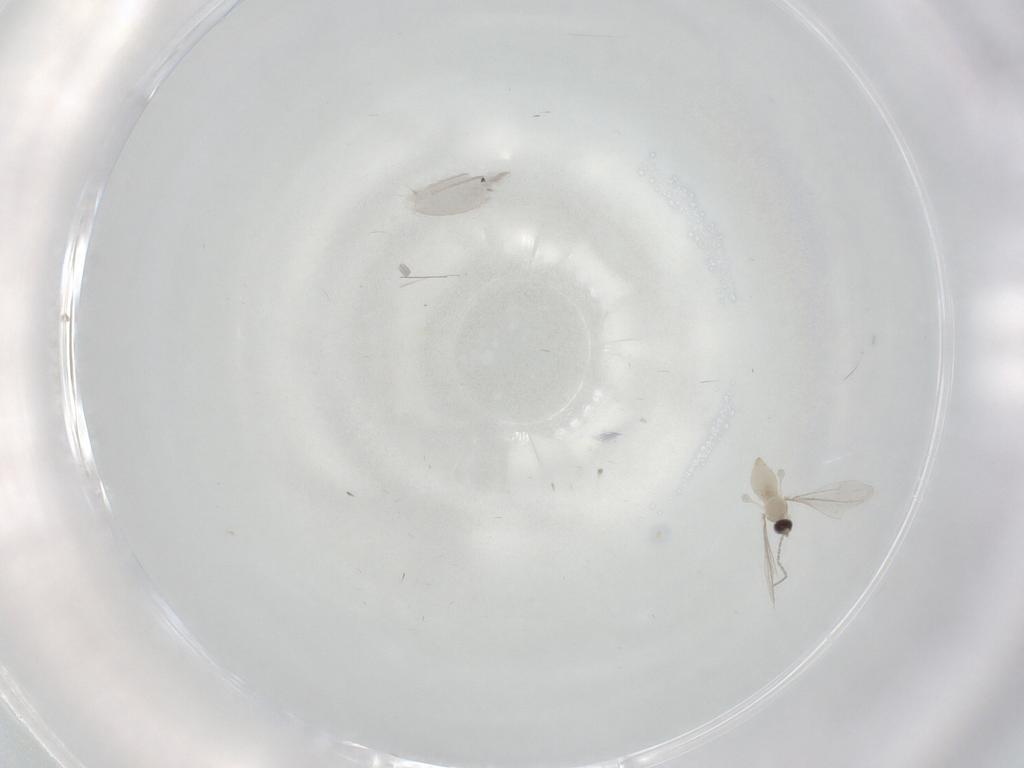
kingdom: Animalia
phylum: Arthropoda
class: Insecta
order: Diptera
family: Cecidomyiidae
